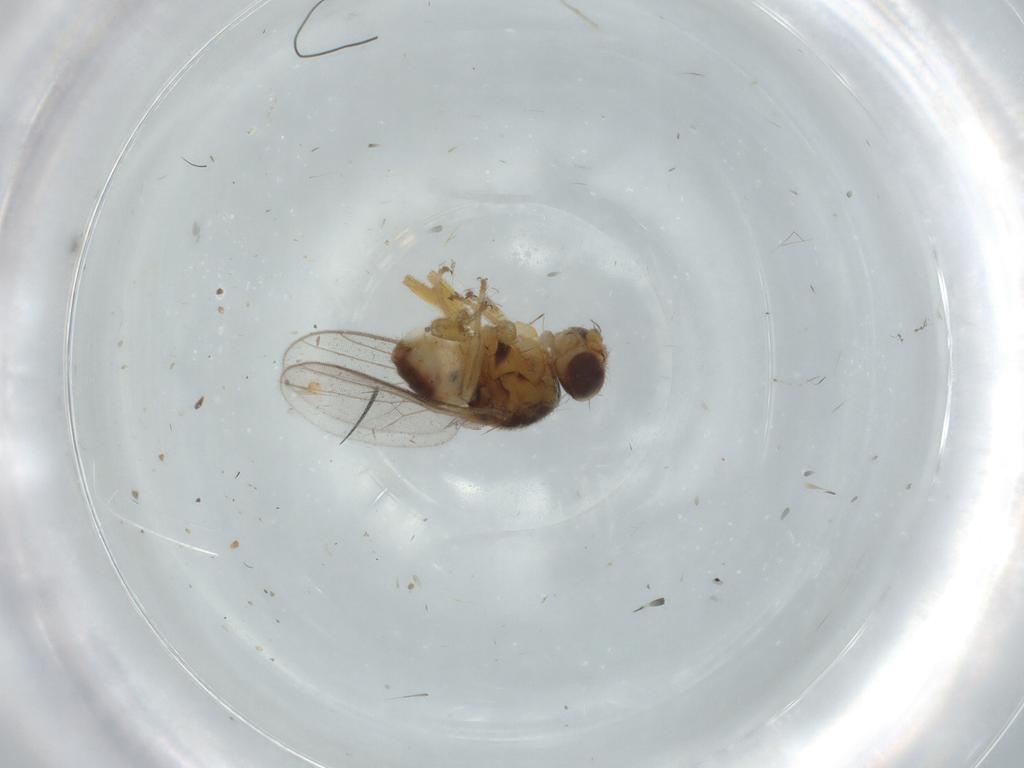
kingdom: Animalia
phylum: Arthropoda
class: Insecta
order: Diptera
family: Chloropidae
